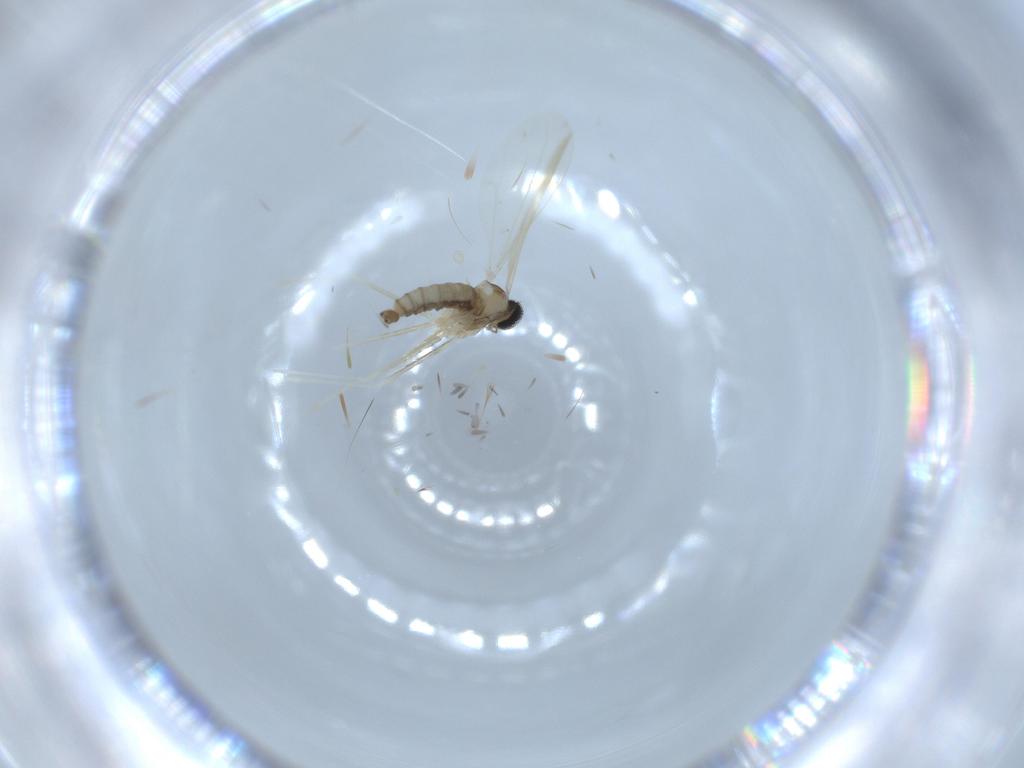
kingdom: Animalia
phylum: Arthropoda
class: Insecta
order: Diptera
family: Cecidomyiidae
